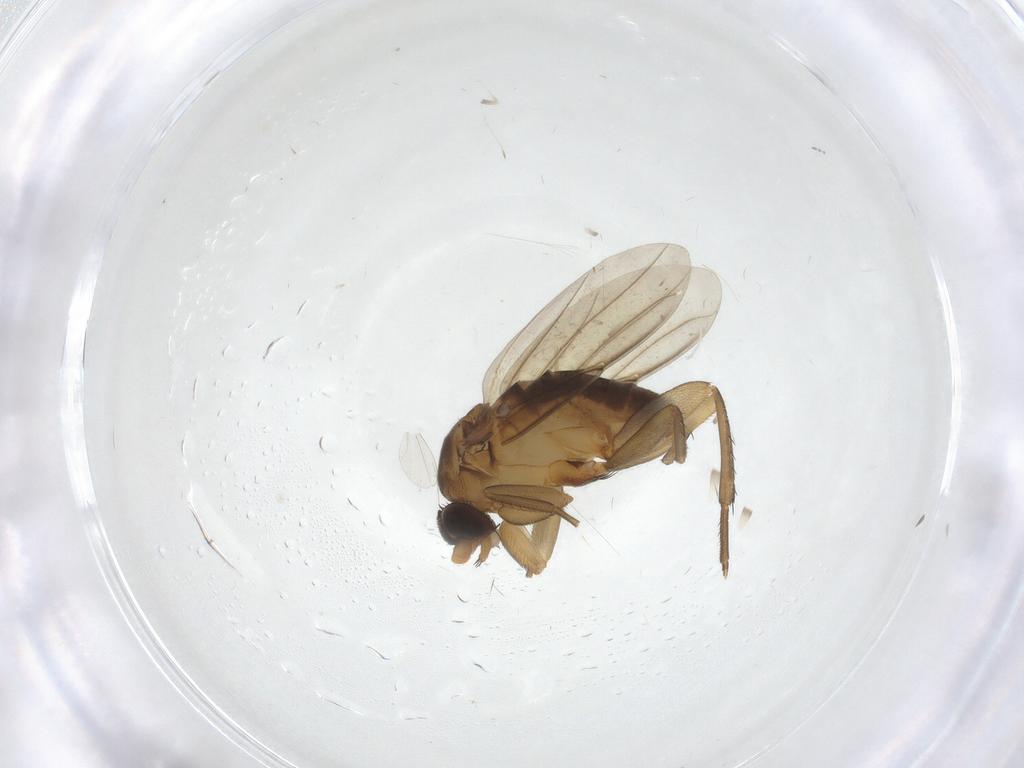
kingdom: Animalia
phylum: Arthropoda
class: Insecta
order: Diptera
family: Phoridae
